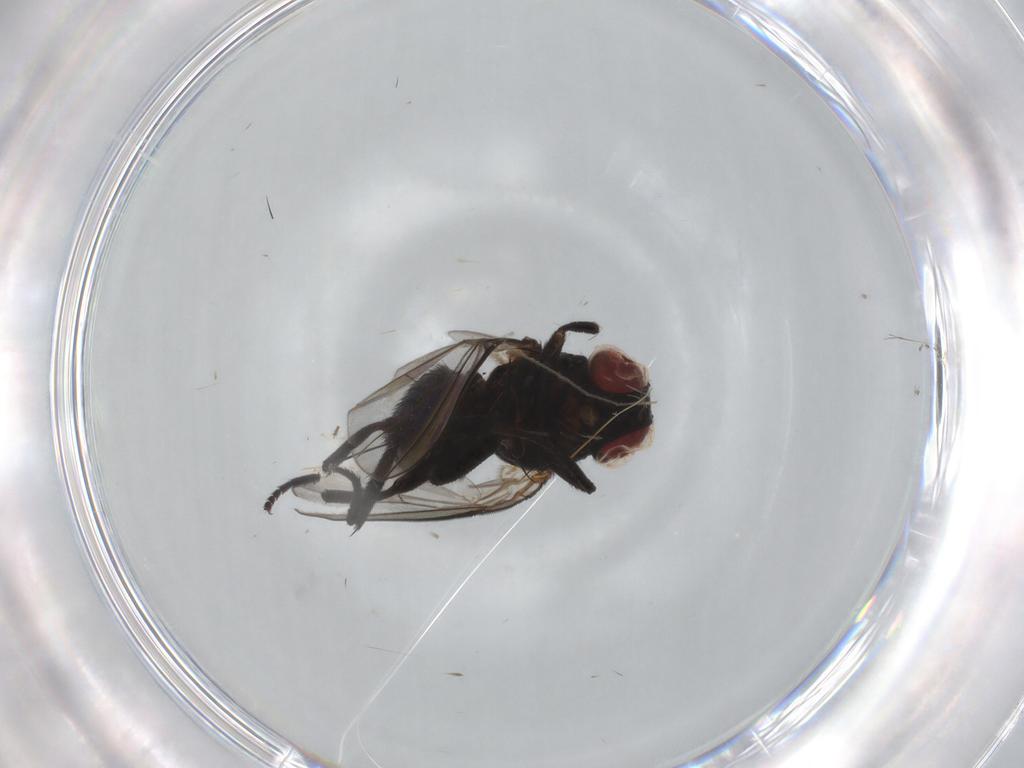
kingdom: Animalia
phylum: Arthropoda
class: Insecta
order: Diptera
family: Agromyzidae
